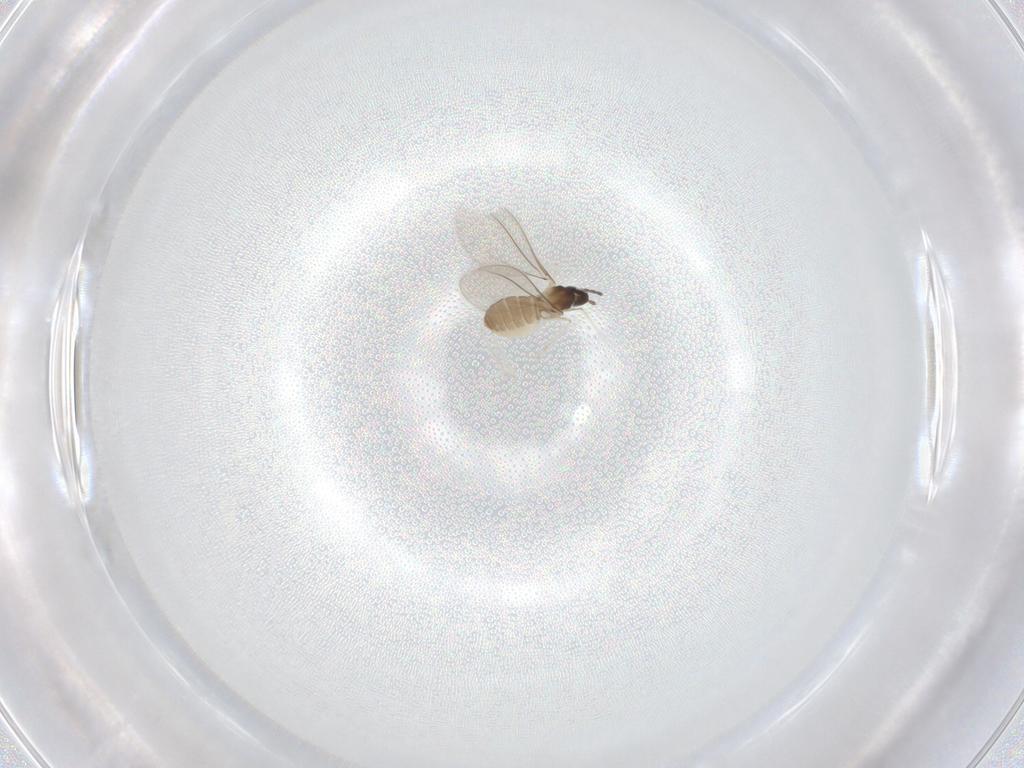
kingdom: Animalia
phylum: Arthropoda
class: Insecta
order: Diptera
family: Cecidomyiidae
